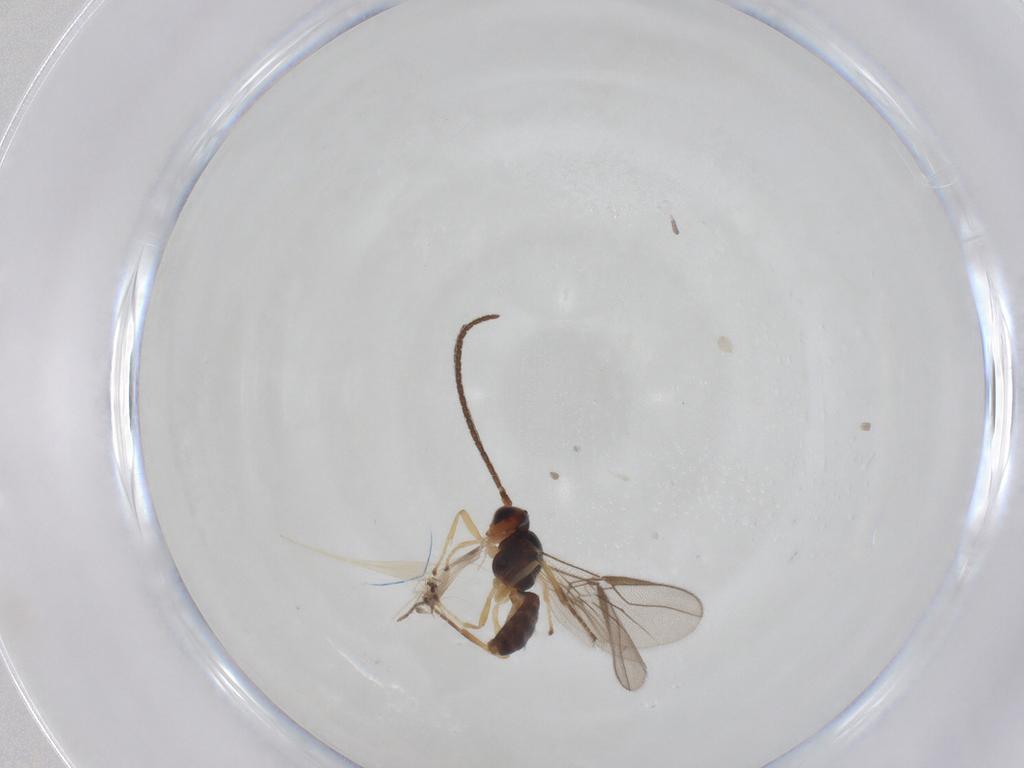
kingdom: Animalia
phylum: Arthropoda
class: Insecta
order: Hymenoptera
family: Braconidae
